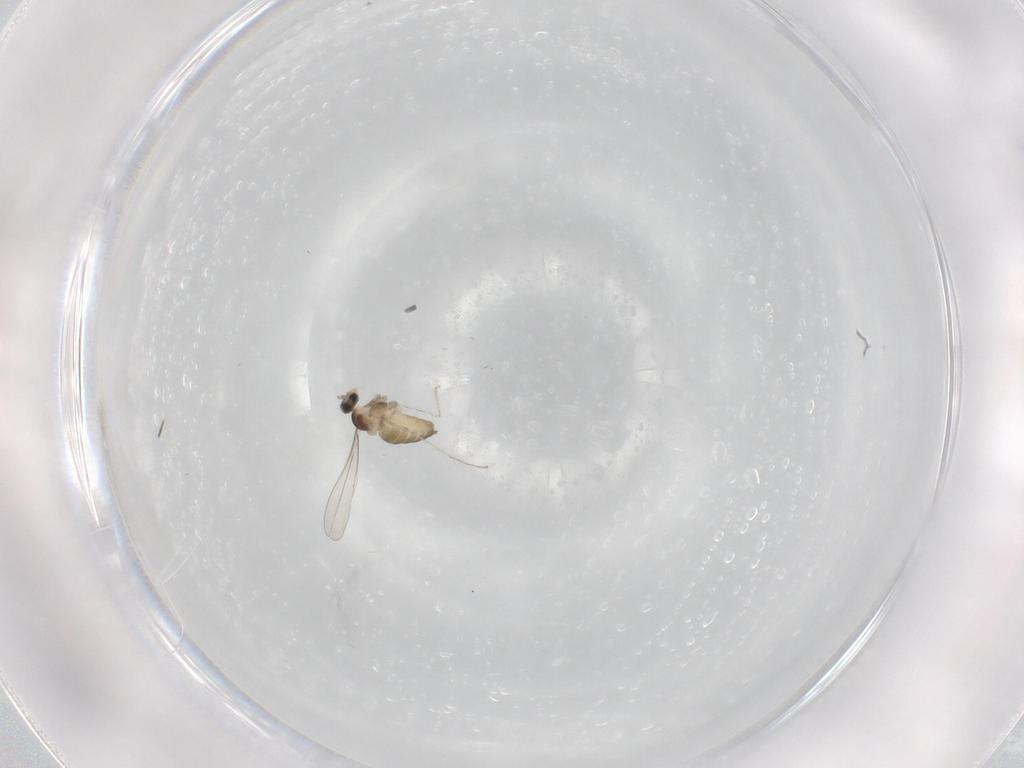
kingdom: Animalia
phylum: Arthropoda
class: Insecta
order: Diptera
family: Cecidomyiidae
